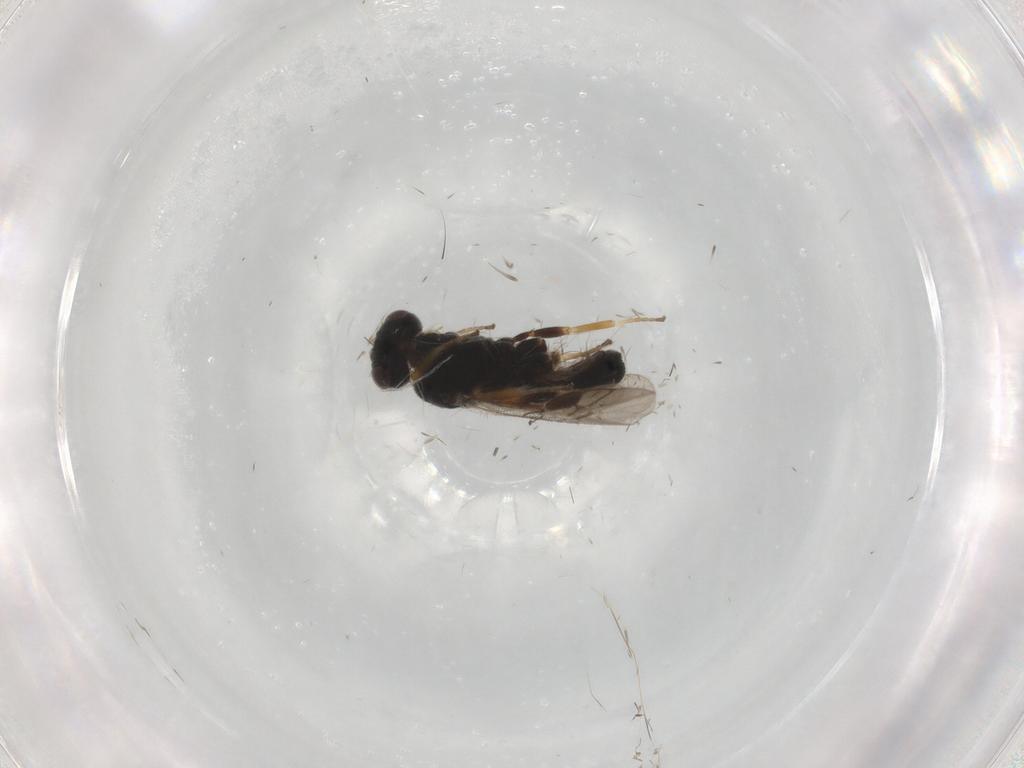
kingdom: Animalia
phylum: Arthropoda
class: Insecta
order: Hymenoptera
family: Braconidae
